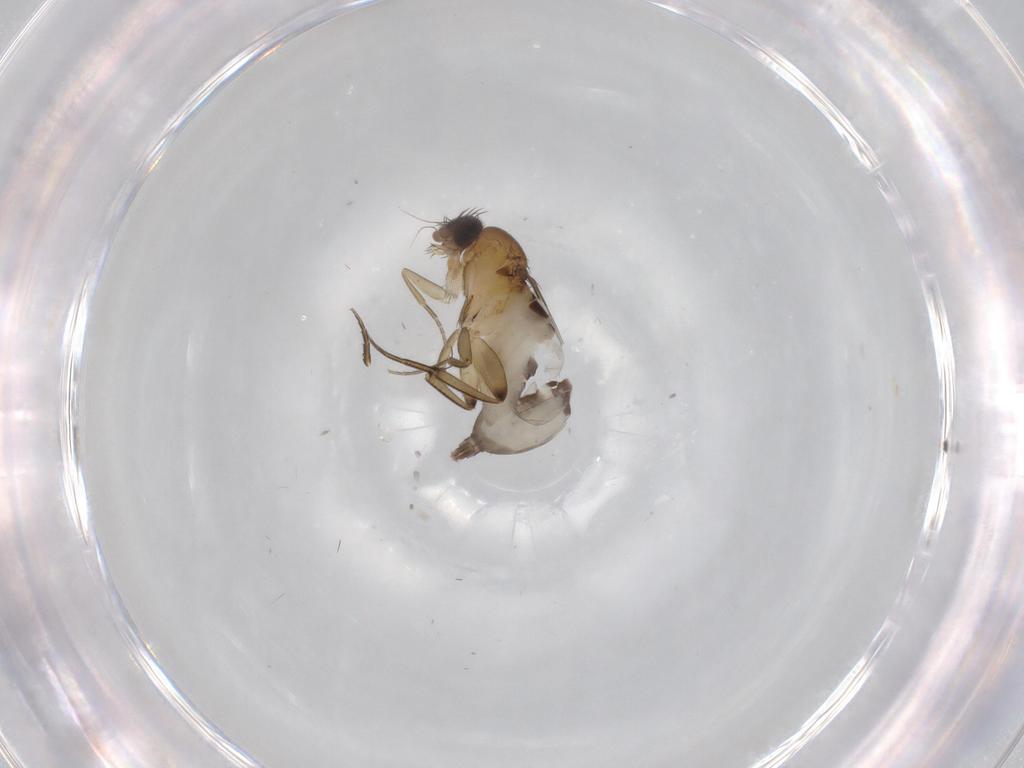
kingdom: Animalia
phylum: Arthropoda
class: Insecta
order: Diptera
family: Phoridae
